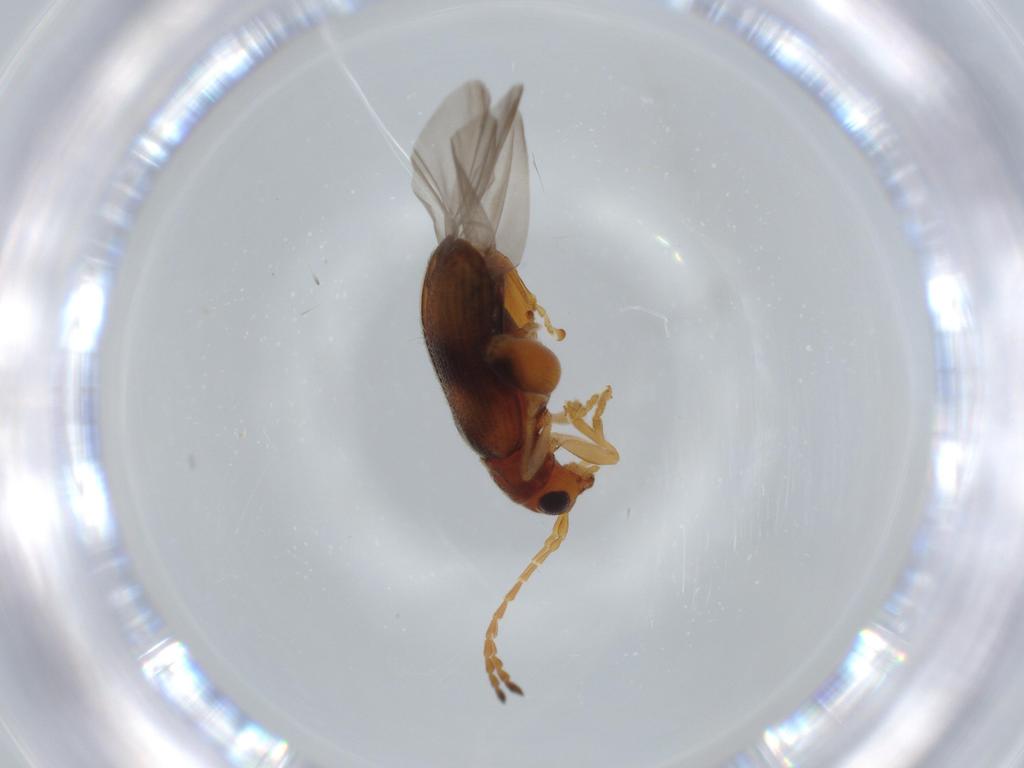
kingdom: Animalia
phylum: Arthropoda
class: Insecta
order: Coleoptera
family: Chrysomelidae
